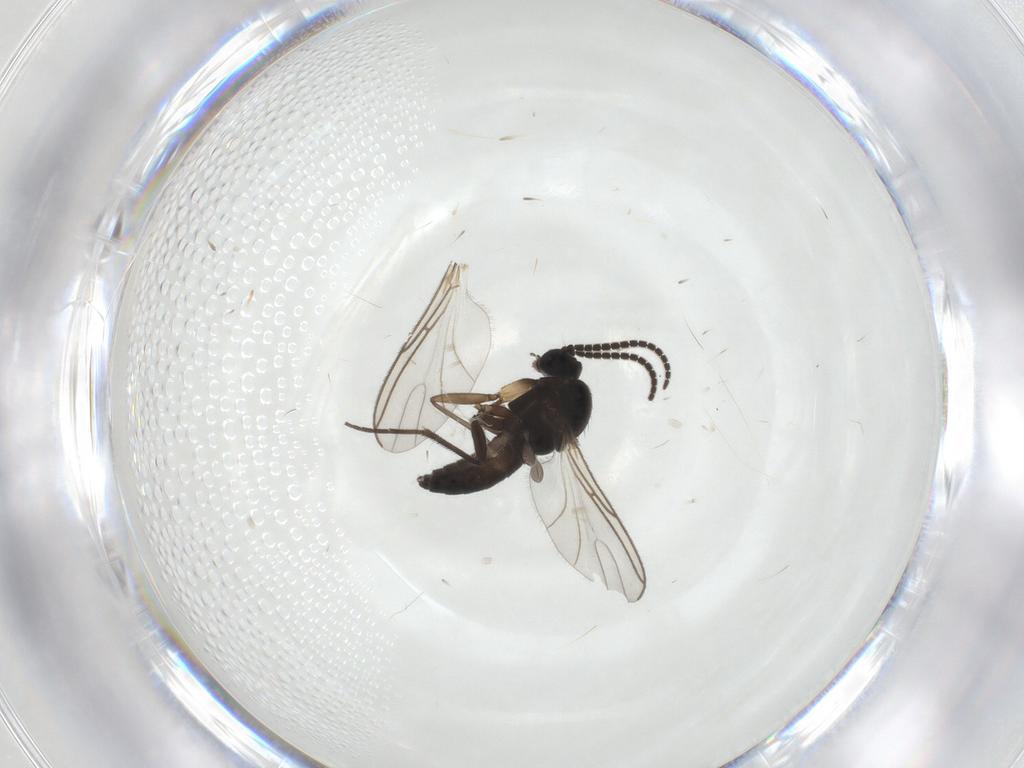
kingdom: Animalia
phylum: Arthropoda
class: Insecta
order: Diptera
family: Sciaridae
